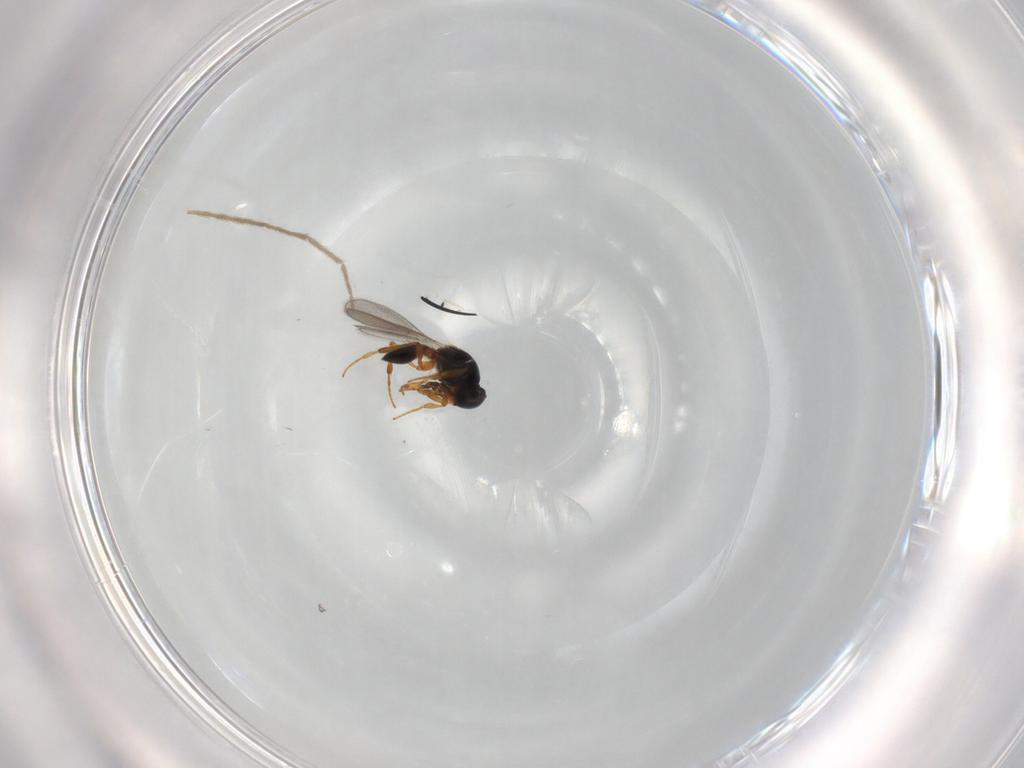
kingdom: Animalia
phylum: Arthropoda
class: Insecta
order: Hymenoptera
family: Platygastridae
